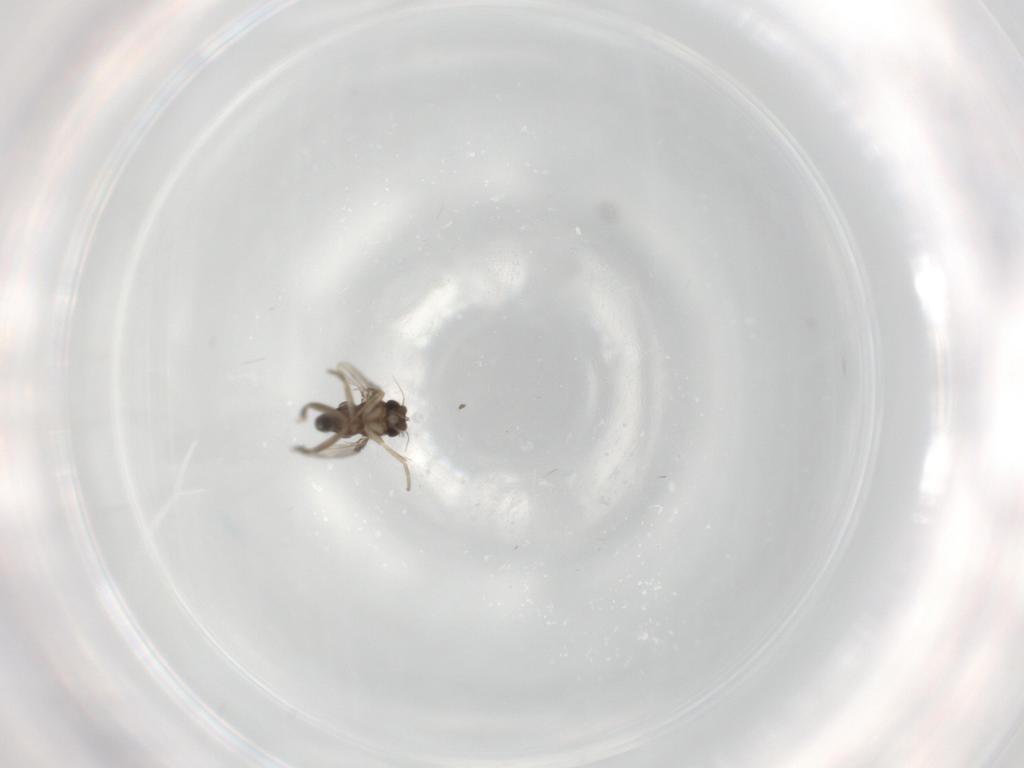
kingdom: Animalia
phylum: Arthropoda
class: Insecta
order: Diptera
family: Phoridae
